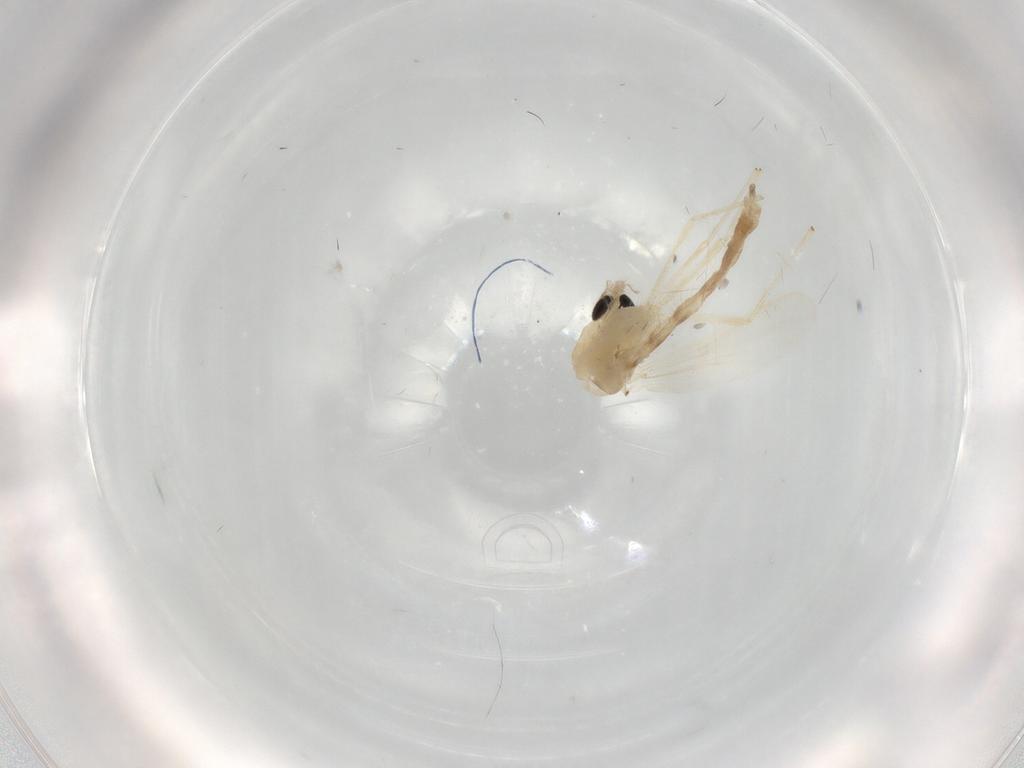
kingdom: Animalia
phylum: Arthropoda
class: Insecta
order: Diptera
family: Chironomidae
